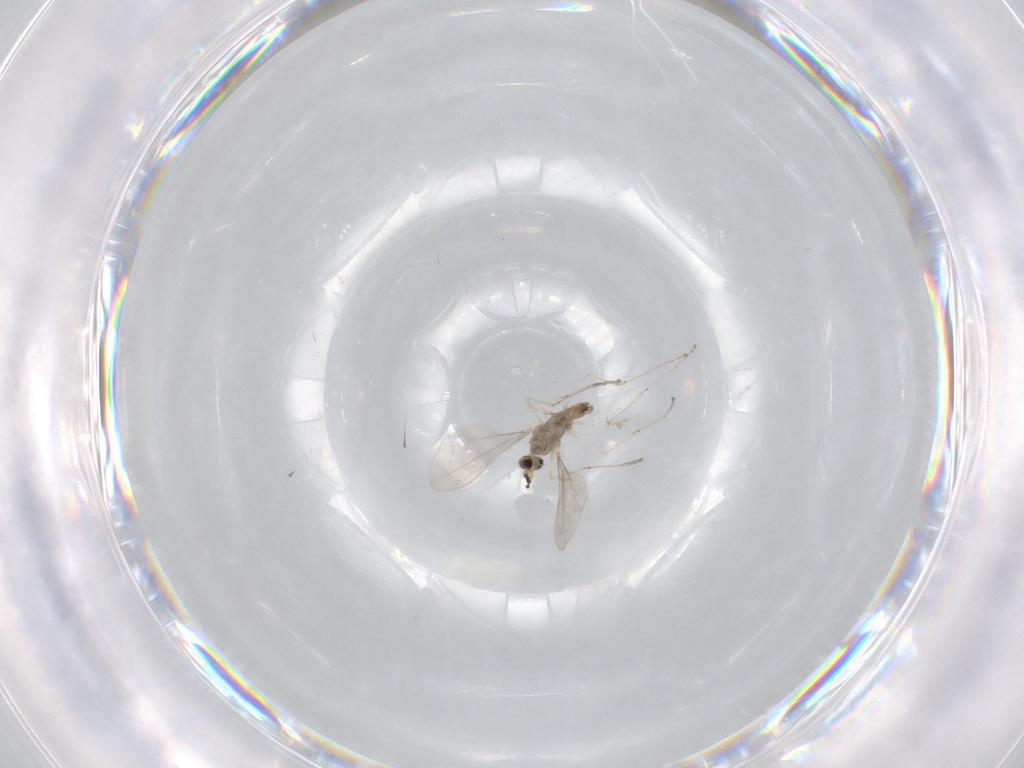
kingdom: Animalia
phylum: Arthropoda
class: Insecta
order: Diptera
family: Cecidomyiidae
